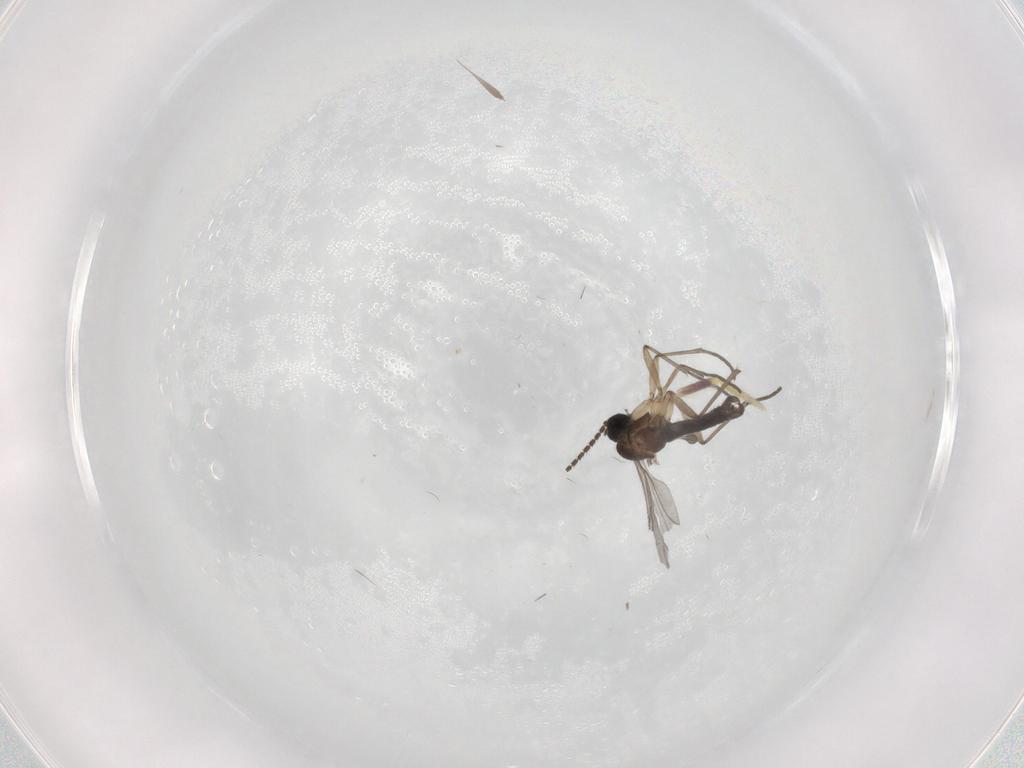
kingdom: Animalia
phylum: Arthropoda
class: Insecta
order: Diptera
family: Sciaridae
